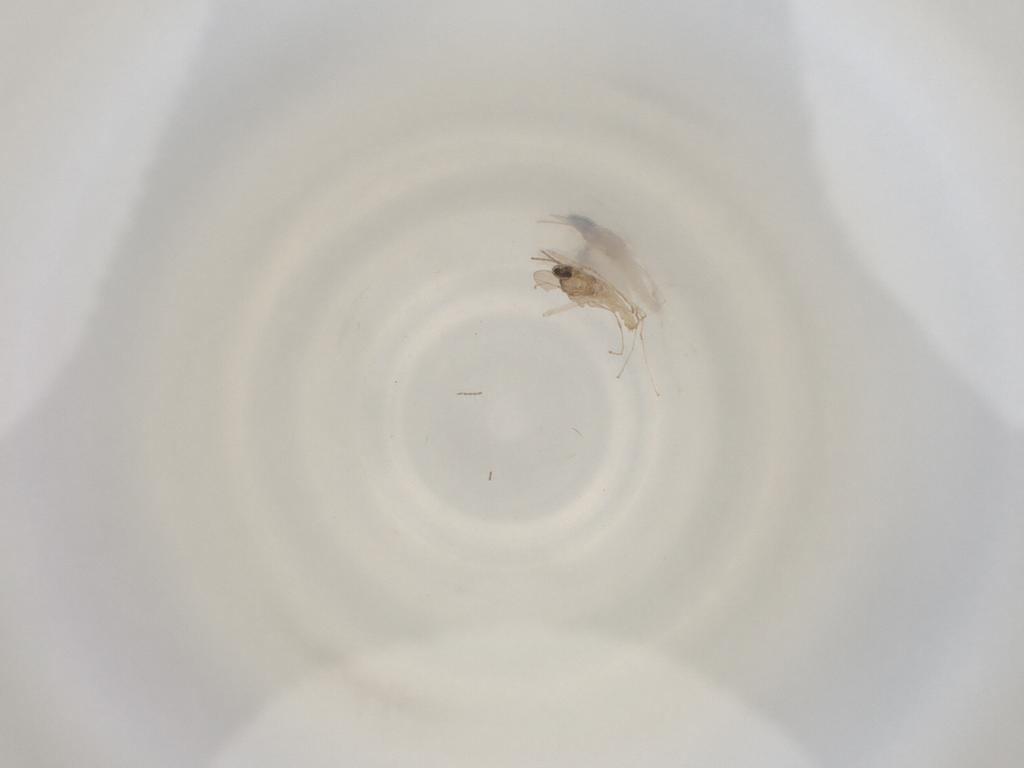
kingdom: Animalia
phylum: Arthropoda
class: Insecta
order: Diptera
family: Cecidomyiidae
